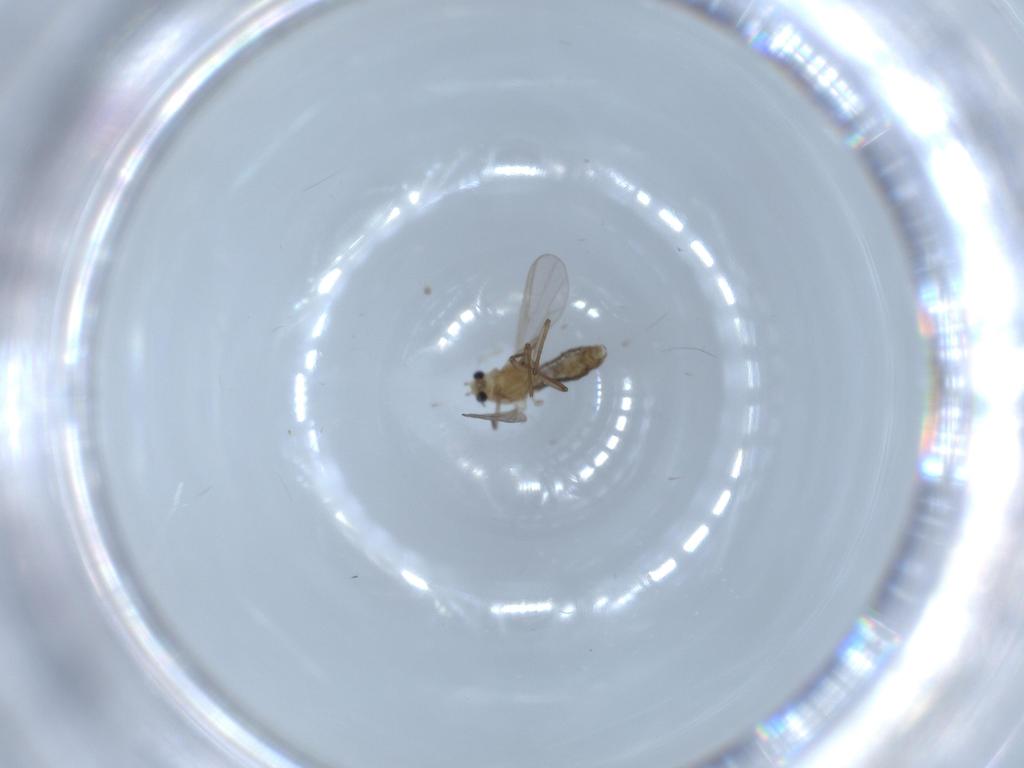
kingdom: Animalia
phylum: Arthropoda
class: Insecta
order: Diptera
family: Chironomidae
